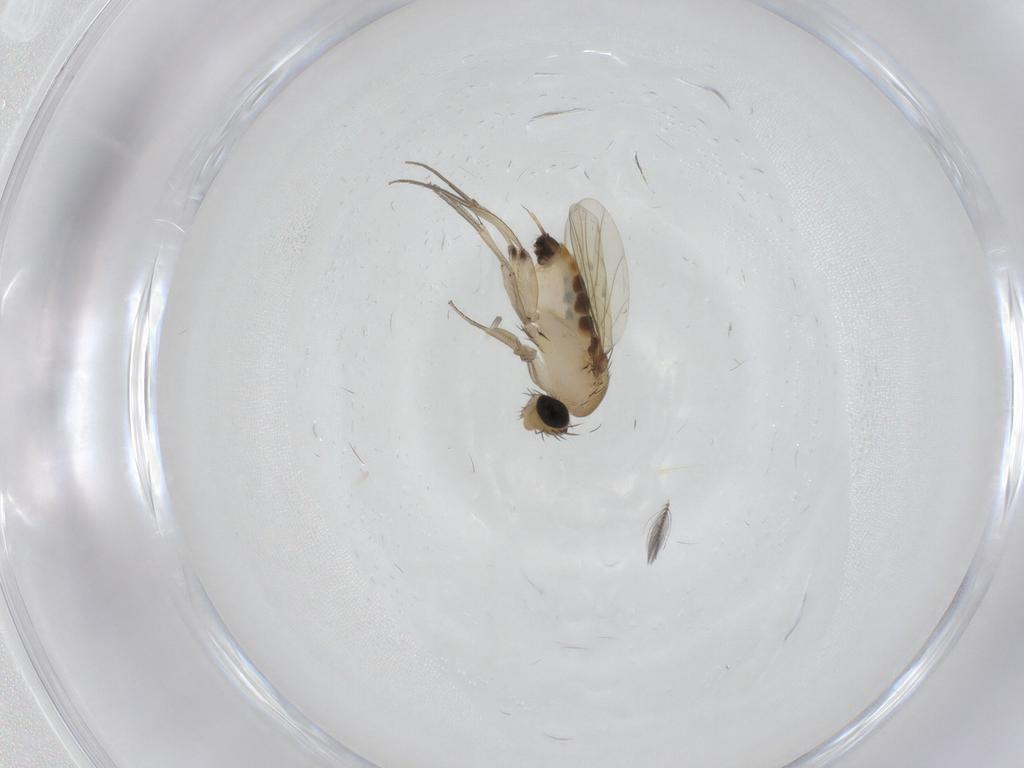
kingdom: Animalia
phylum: Arthropoda
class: Insecta
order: Diptera
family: Phoridae
